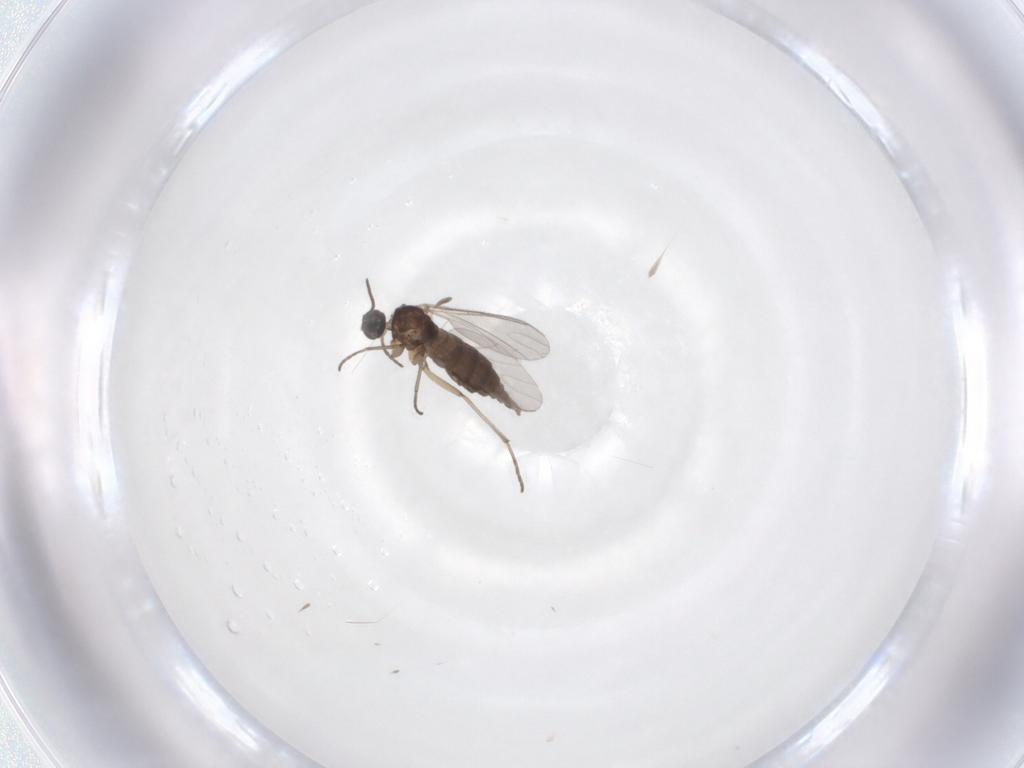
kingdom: Animalia
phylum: Arthropoda
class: Insecta
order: Diptera
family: Sciaridae
